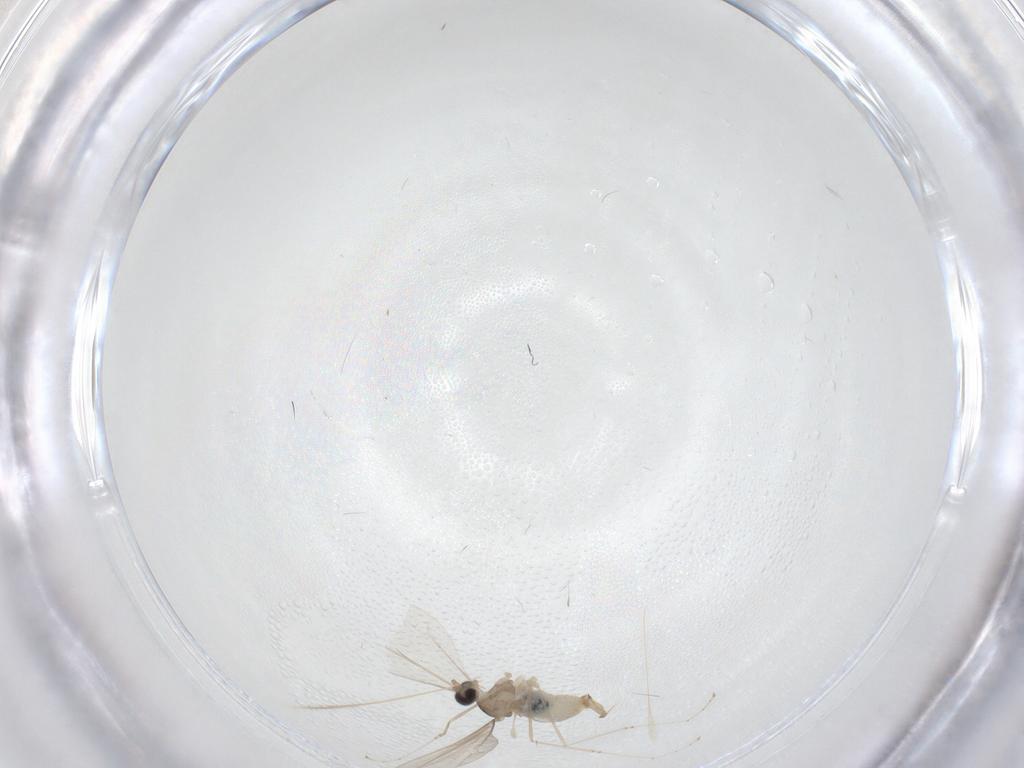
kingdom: Animalia
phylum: Arthropoda
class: Insecta
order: Diptera
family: Cecidomyiidae
